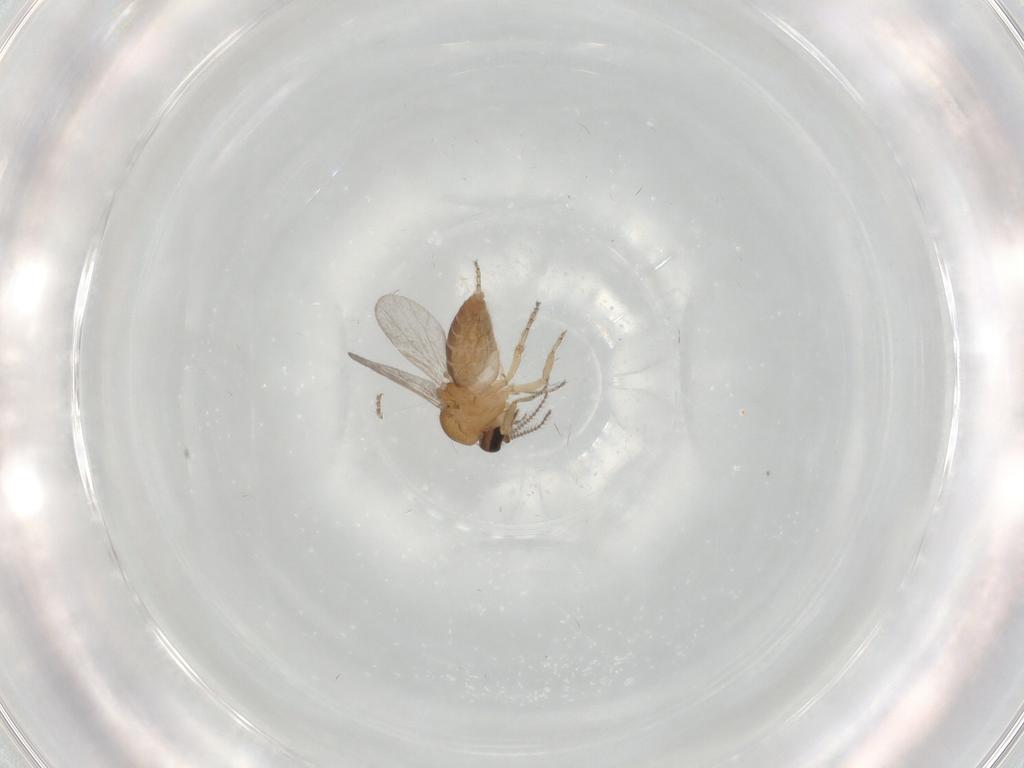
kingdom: Animalia
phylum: Arthropoda
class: Insecta
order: Diptera
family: Ceratopogonidae
